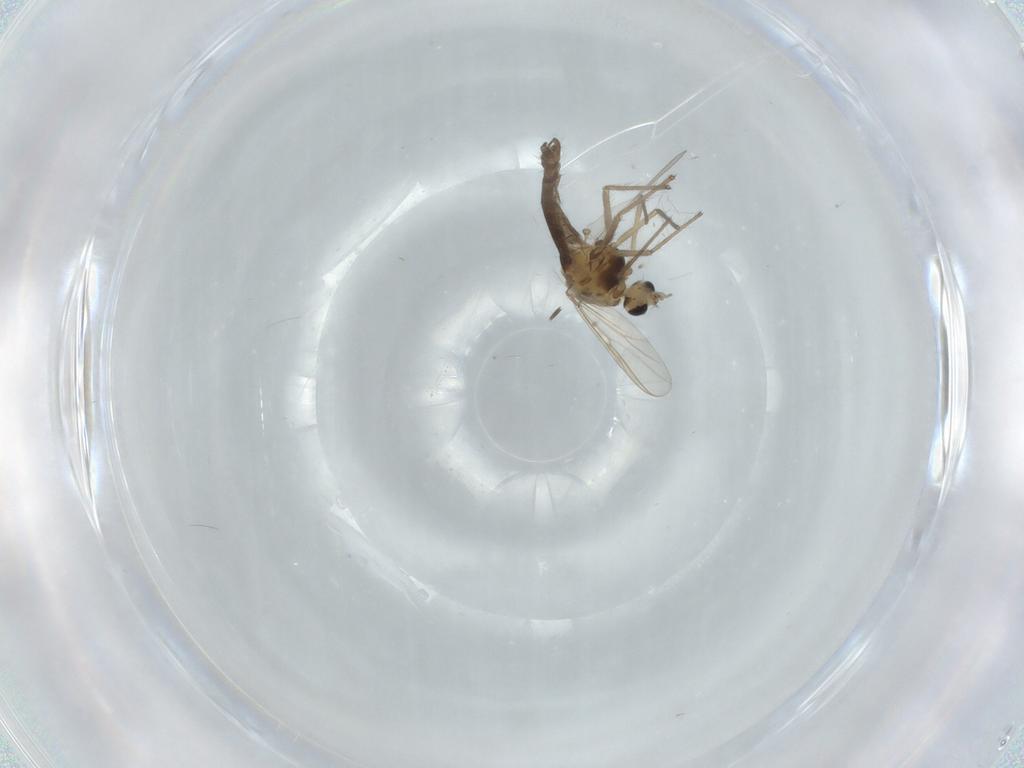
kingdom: Animalia
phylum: Arthropoda
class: Insecta
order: Diptera
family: Chironomidae
